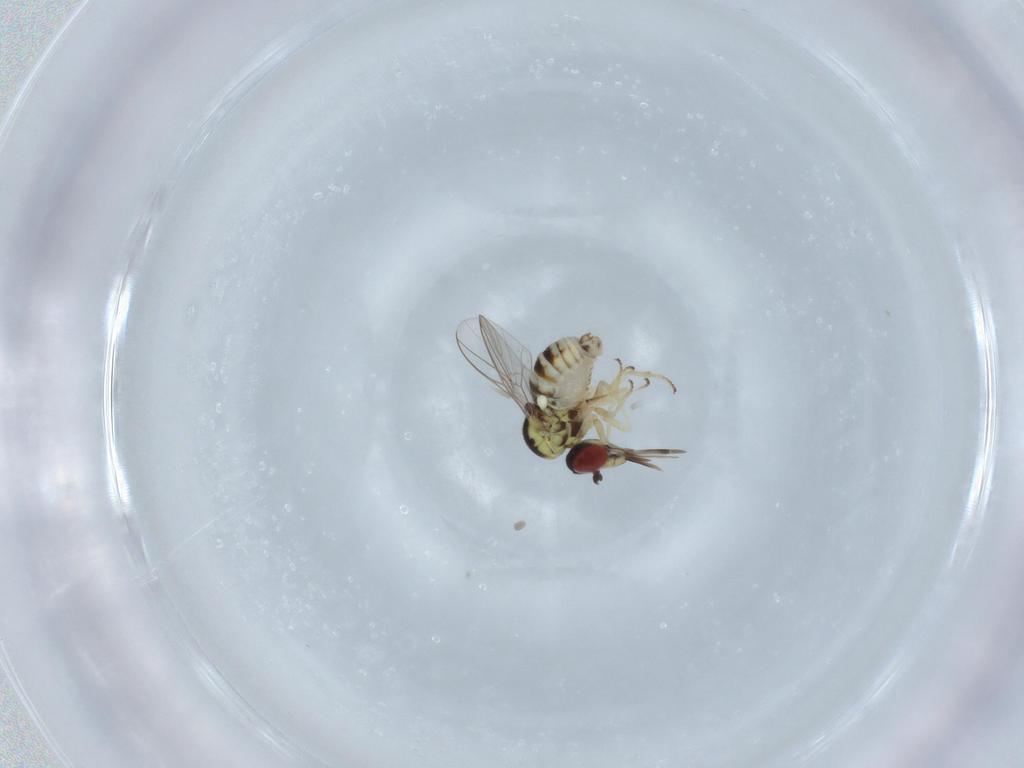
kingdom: Animalia
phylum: Arthropoda
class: Insecta
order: Diptera
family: Bombyliidae
